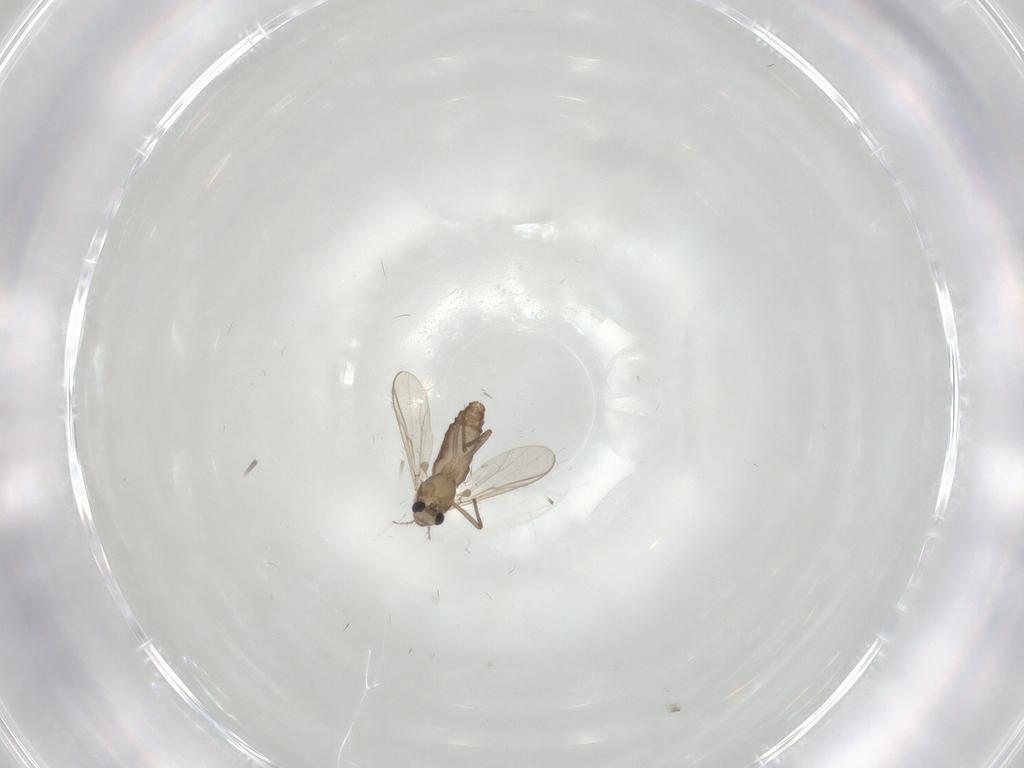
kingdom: Animalia
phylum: Arthropoda
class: Insecta
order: Diptera
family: Chironomidae
